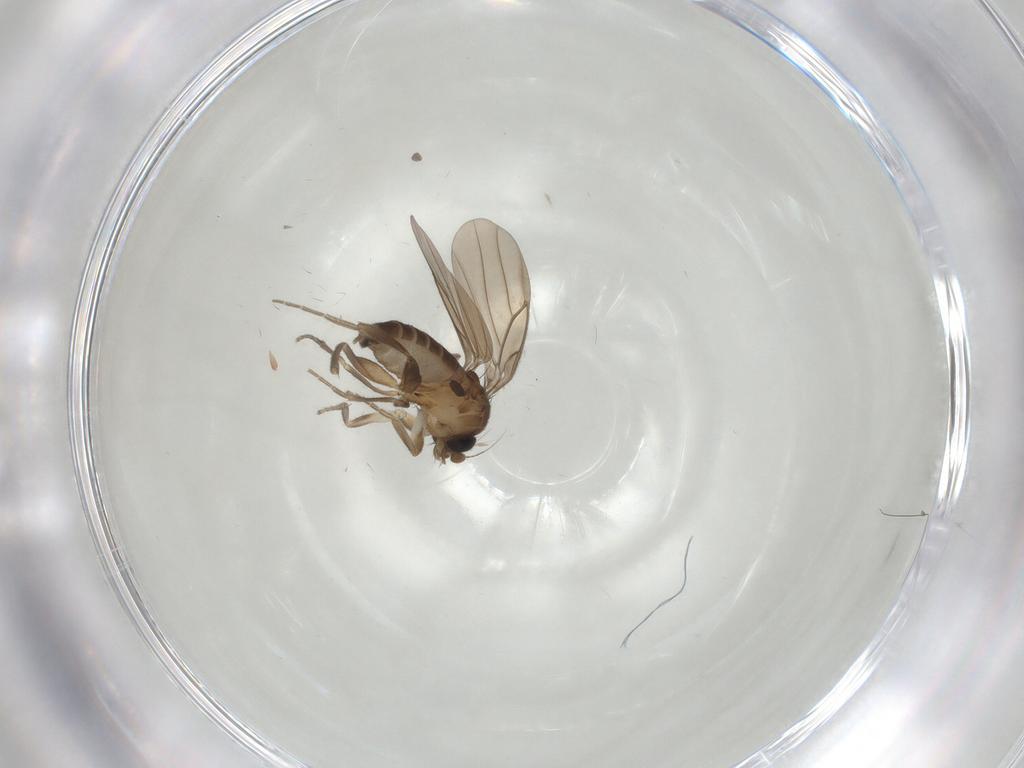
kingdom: Animalia
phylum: Arthropoda
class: Insecta
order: Diptera
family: Sciaridae
